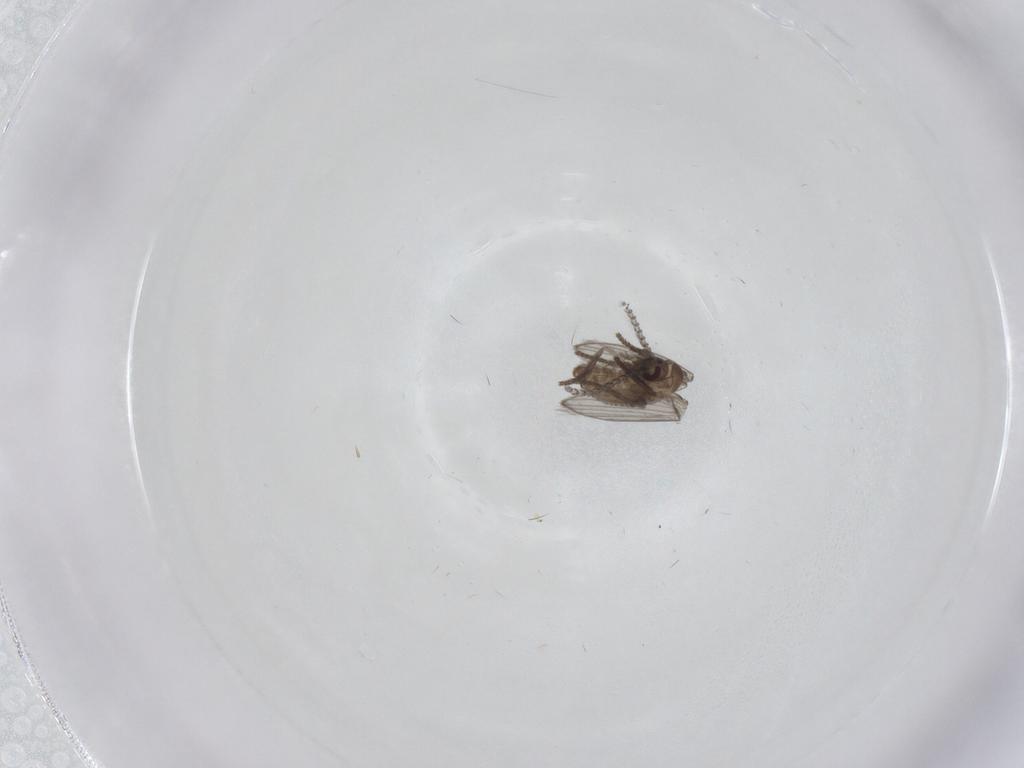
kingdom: Animalia
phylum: Arthropoda
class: Insecta
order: Diptera
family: Psychodidae
